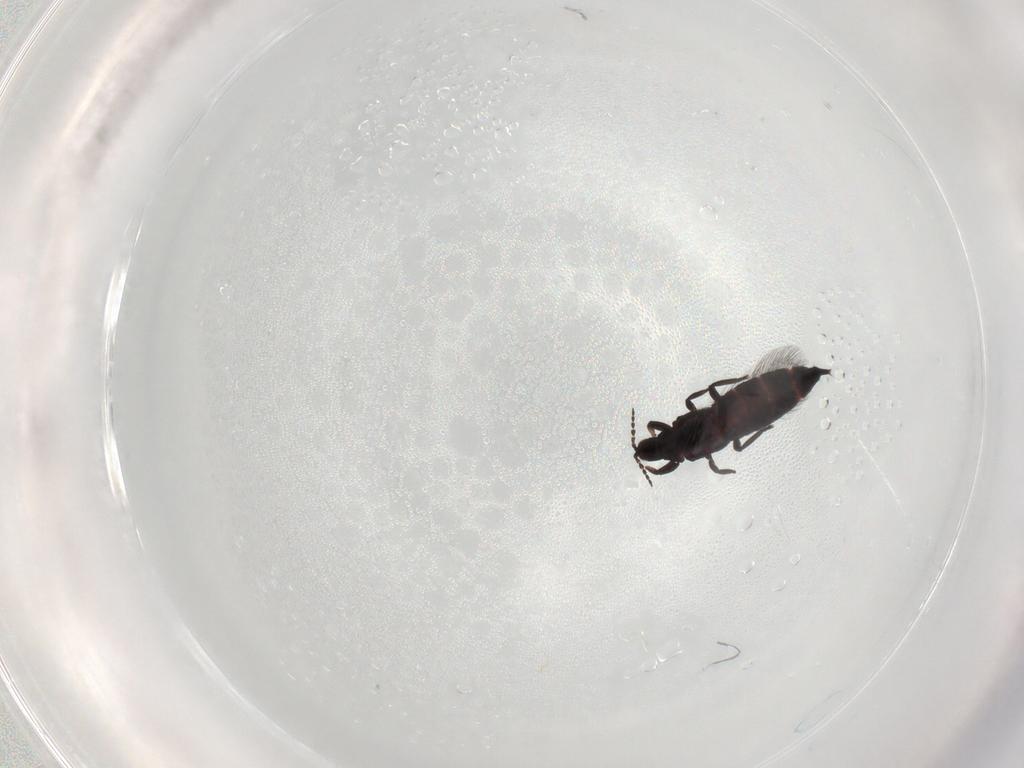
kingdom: Animalia
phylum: Arthropoda
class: Insecta
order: Thysanoptera
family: Phlaeothripidae
